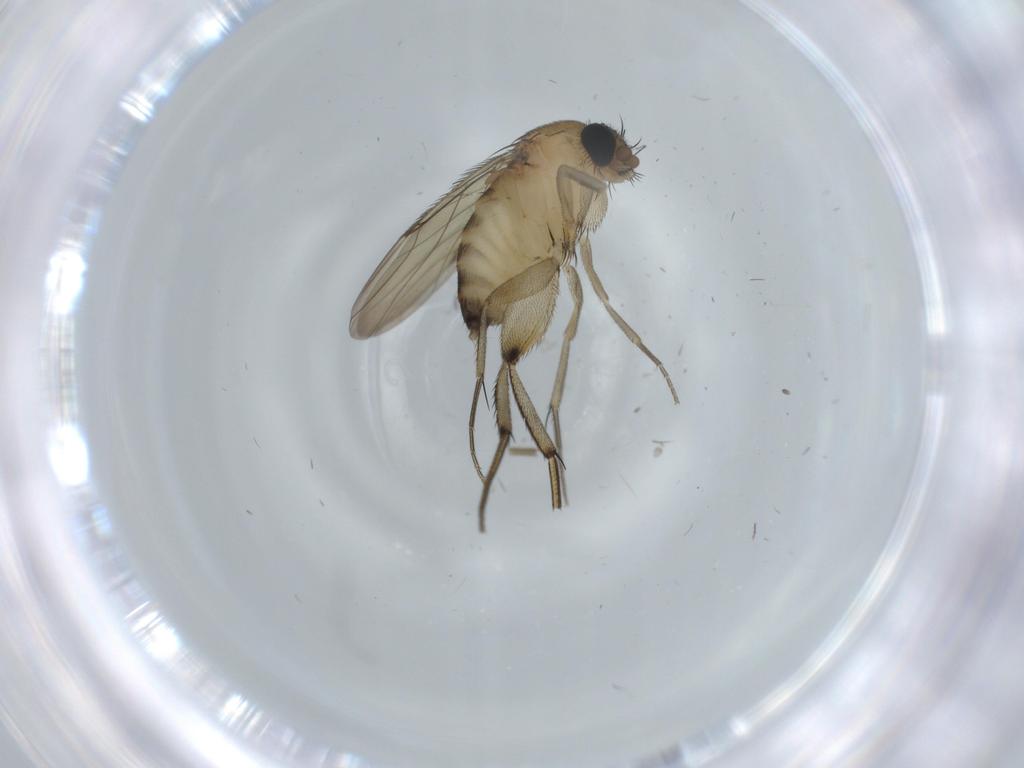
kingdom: Animalia
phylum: Arthropoda
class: Insecta
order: Diptera
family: Phoridae
